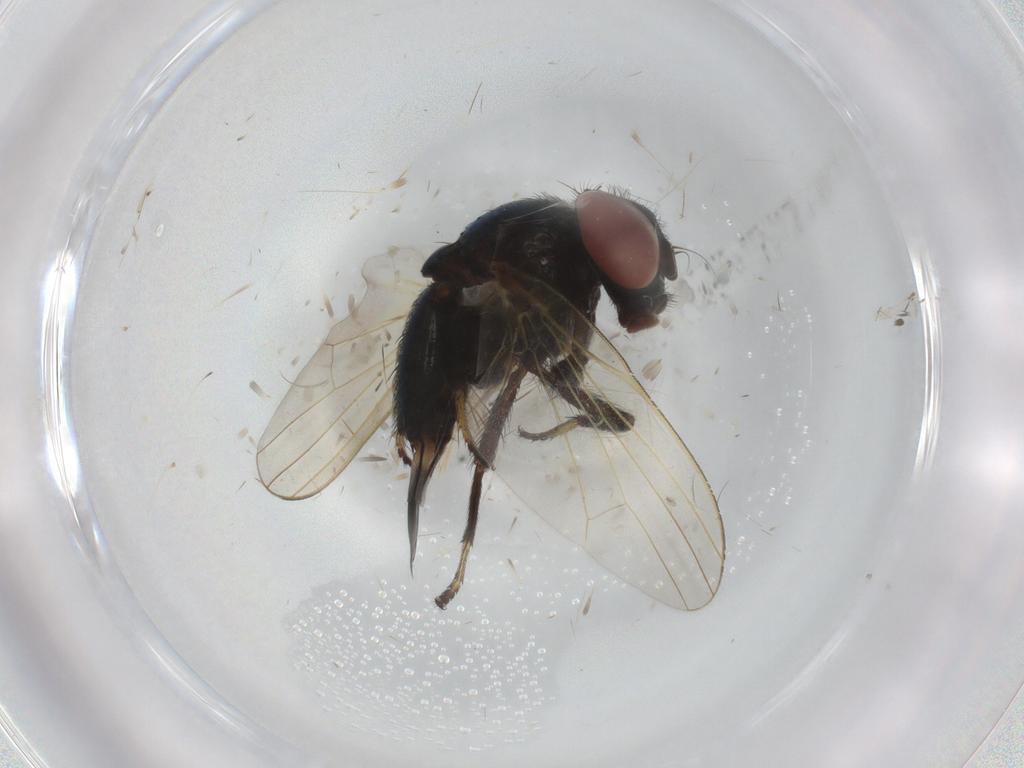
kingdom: Animalia
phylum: Arthropoda
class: Insecta
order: Diptera
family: Lonchaeidae
